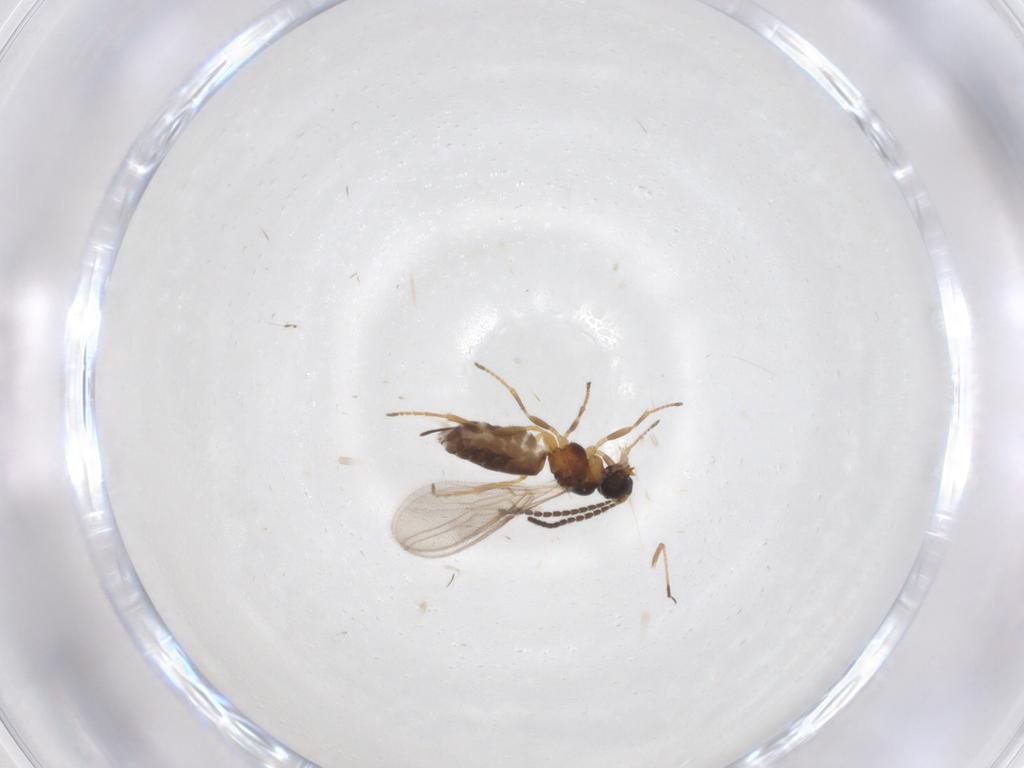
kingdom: Animalia
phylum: Arthropoda
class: Insecta
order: Hymenoptera
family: Braconidae
